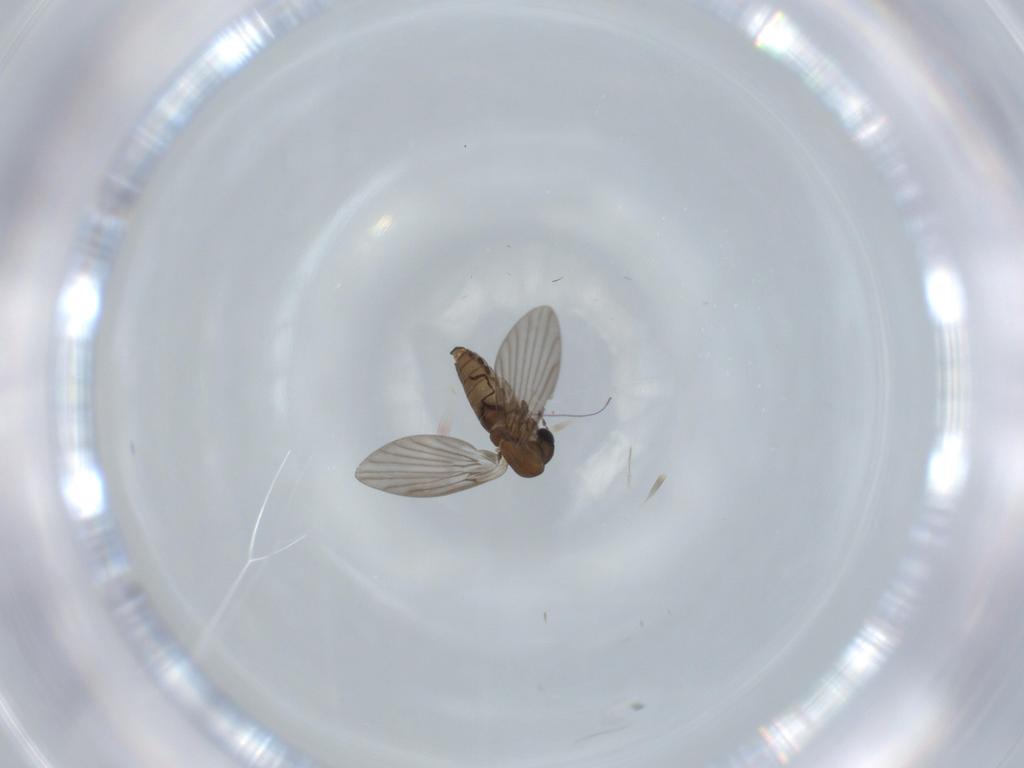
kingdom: Animalia
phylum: Arthropoda
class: Insecta
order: Diptera
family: Psychodidae
